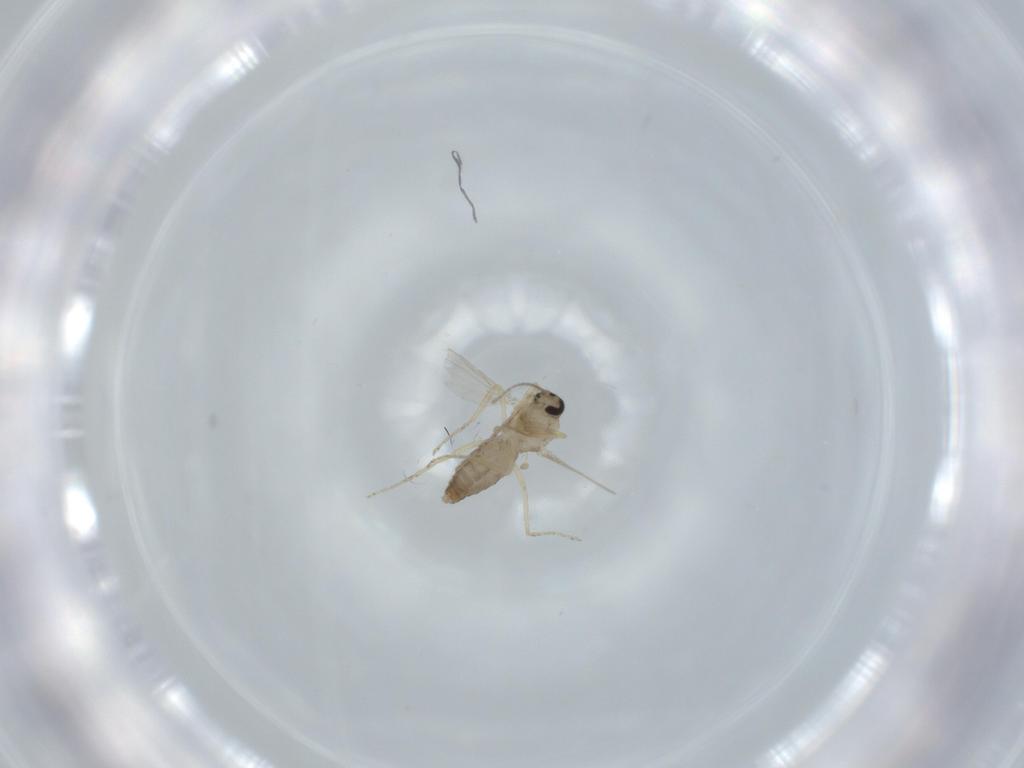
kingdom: Animalia
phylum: Arthropoda
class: Insecta
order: Diptera
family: Ceratopogonidae
